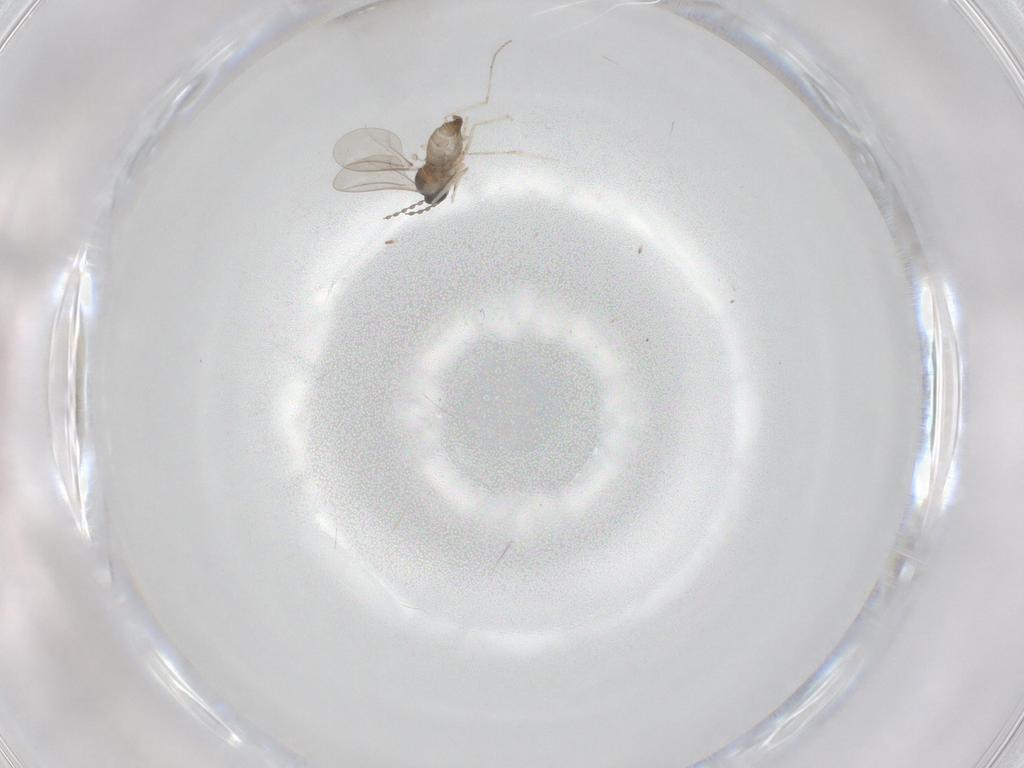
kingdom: Animalia
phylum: Arthropoda
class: Insecta
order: Diptera
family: Cecidomyiidae
